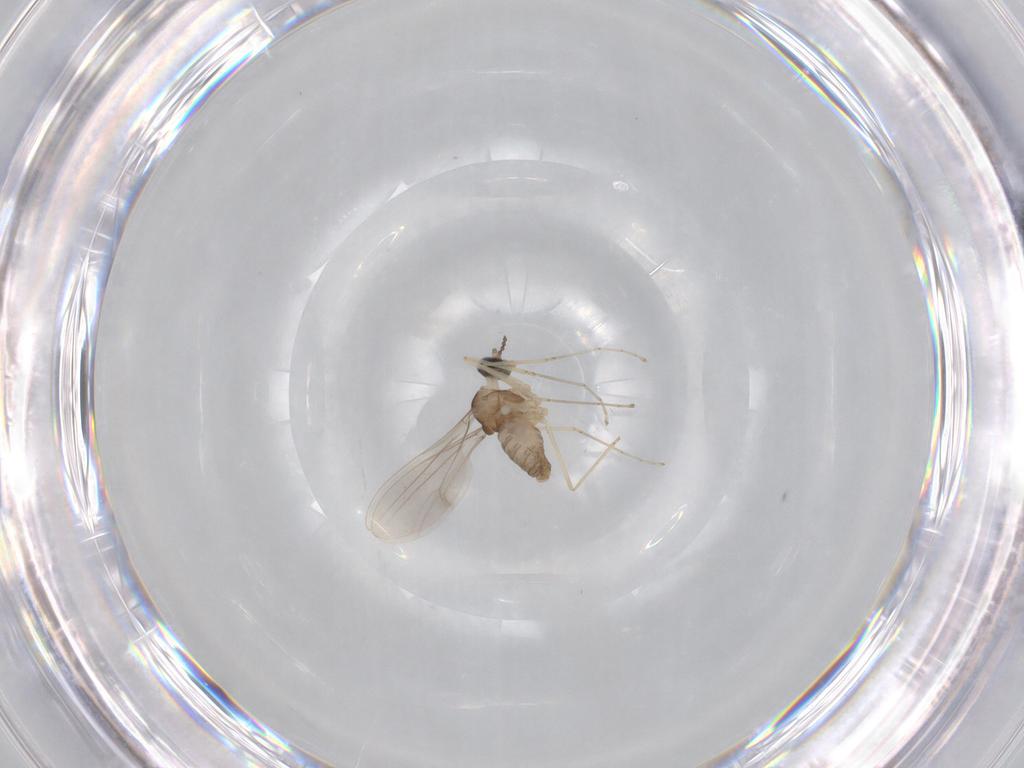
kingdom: Animalia
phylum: Arthropoda
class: Insecta
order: Diptera
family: Cecidomyiidae
